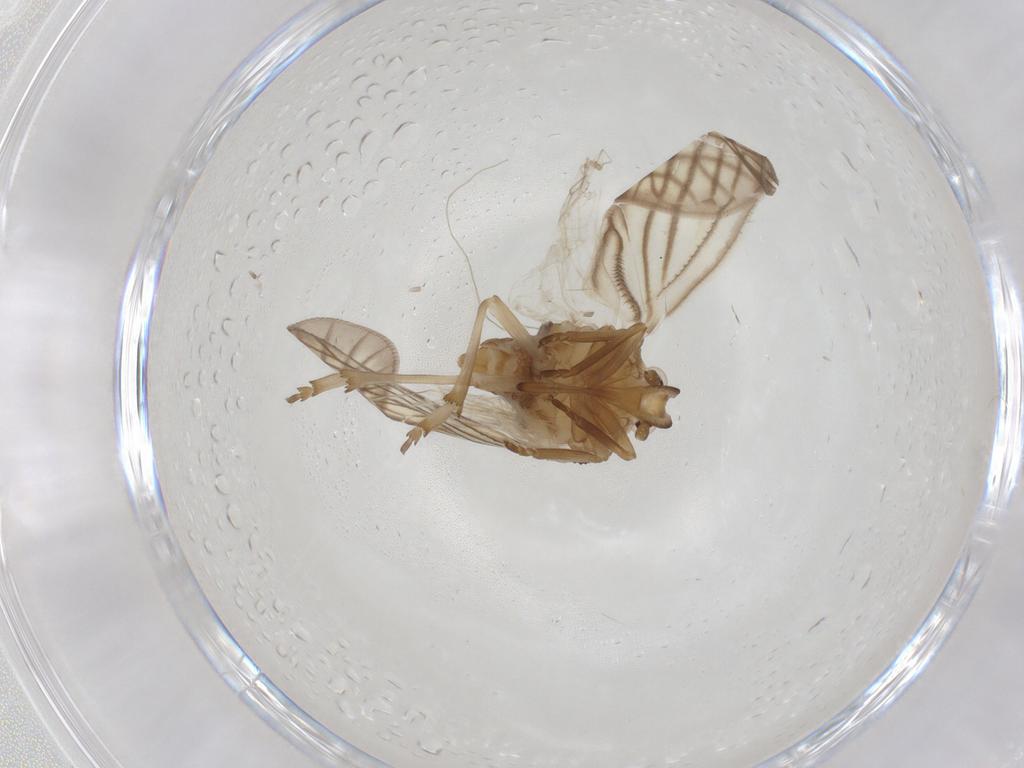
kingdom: Animalia
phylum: Arthropoda
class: Insecta
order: Hemiptera
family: Meenoplidae
